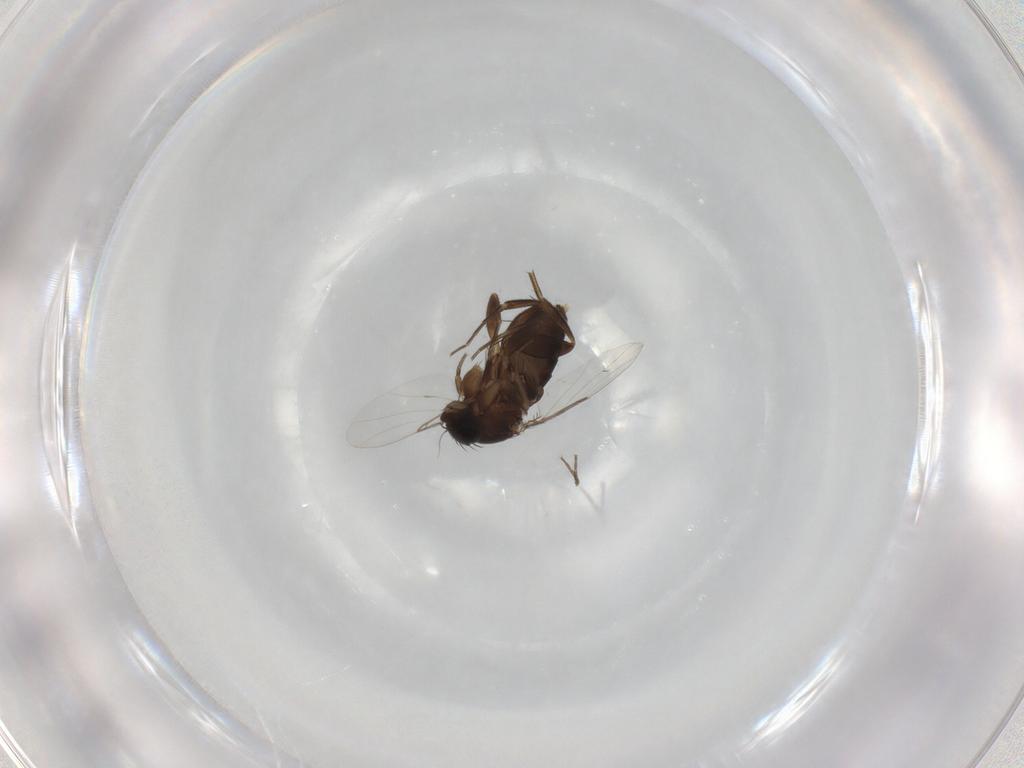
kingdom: Animalia
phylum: Arthropoda
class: Insecta
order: Diptera
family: Phoridae
